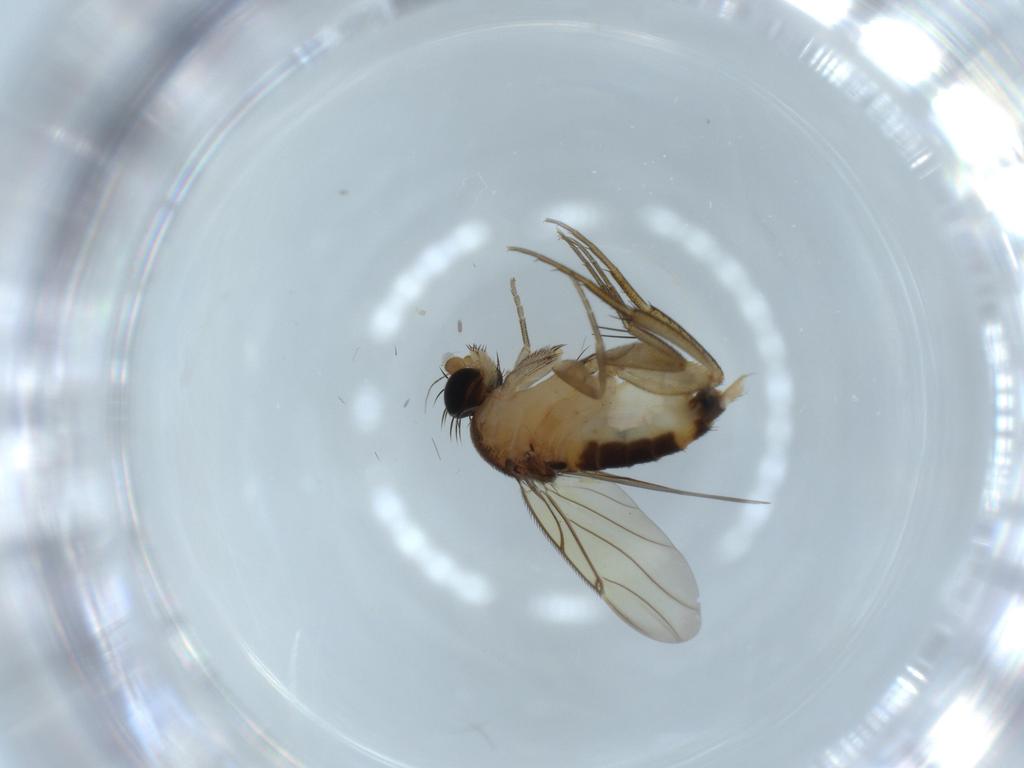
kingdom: Animalia
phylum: Arthropoda
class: Insecta
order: Diptera
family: Phoridae
